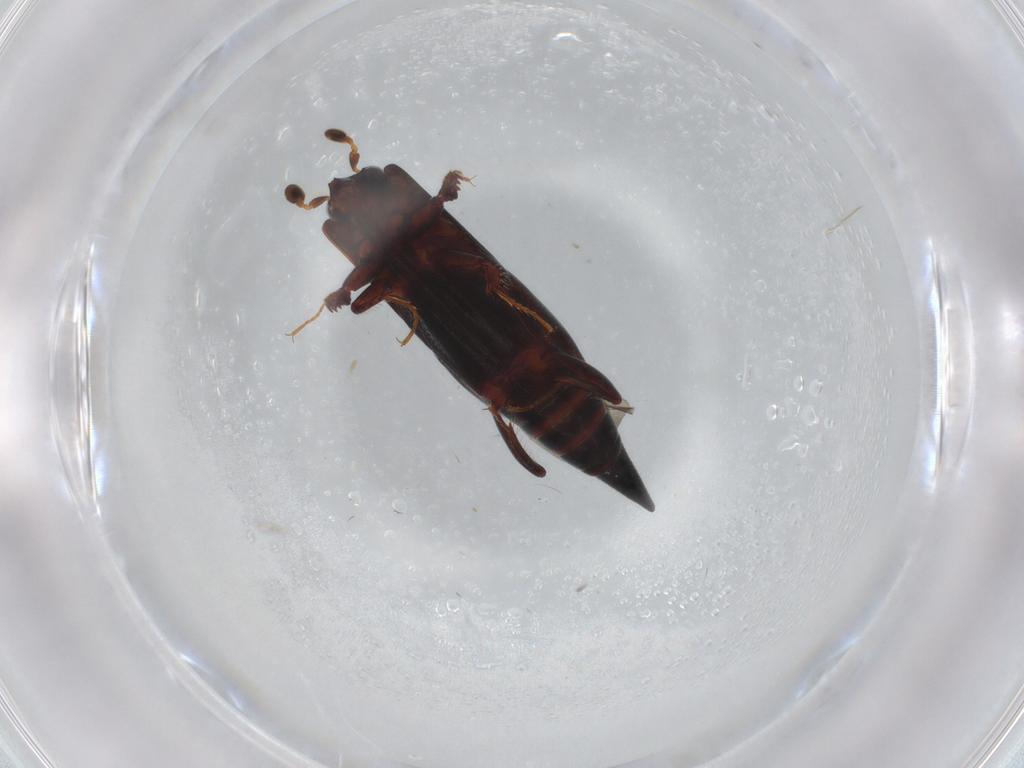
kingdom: Animalia
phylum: Arthropoda
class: Insecta
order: Coleoptera
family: Histeridae
